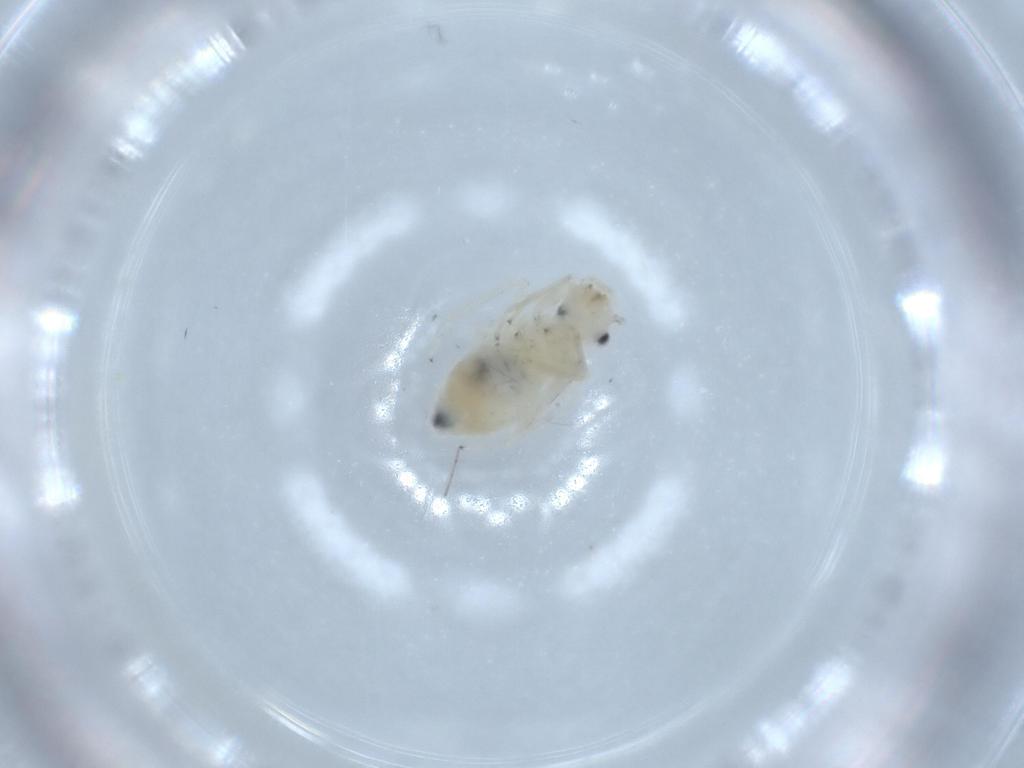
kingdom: Animalia
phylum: Arthropoda
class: Insecta
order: Psocodea
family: Caeciliusidae
